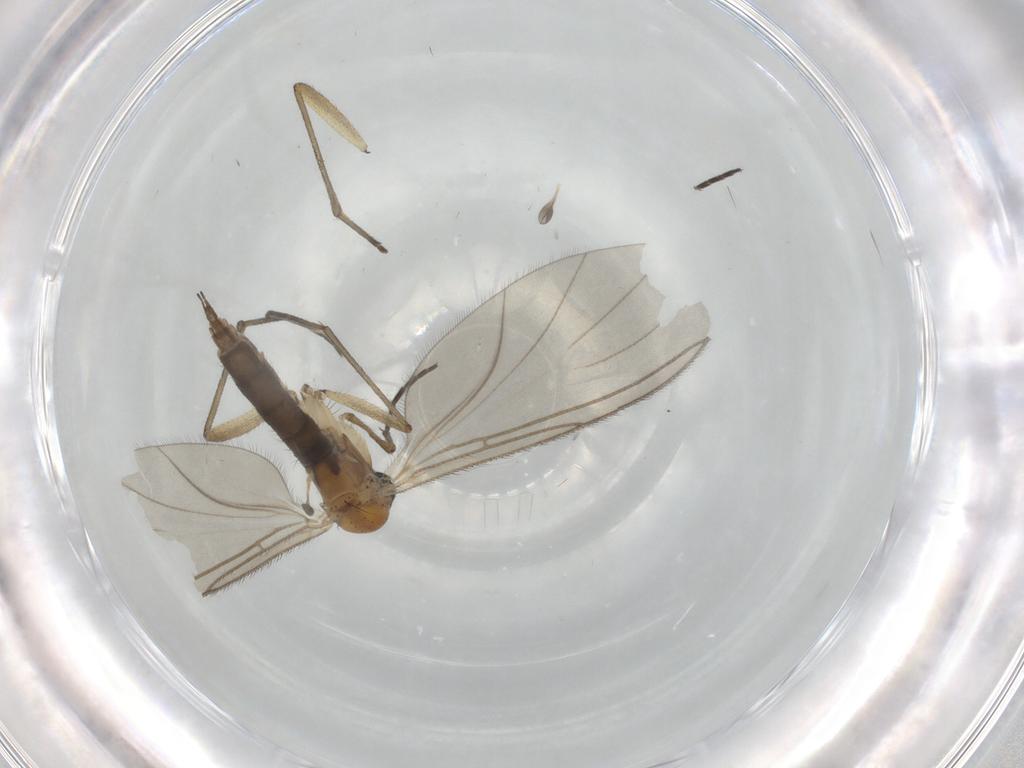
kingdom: Animalia
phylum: Arthropoda
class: Insecta
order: Diptera
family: Sciaridae
